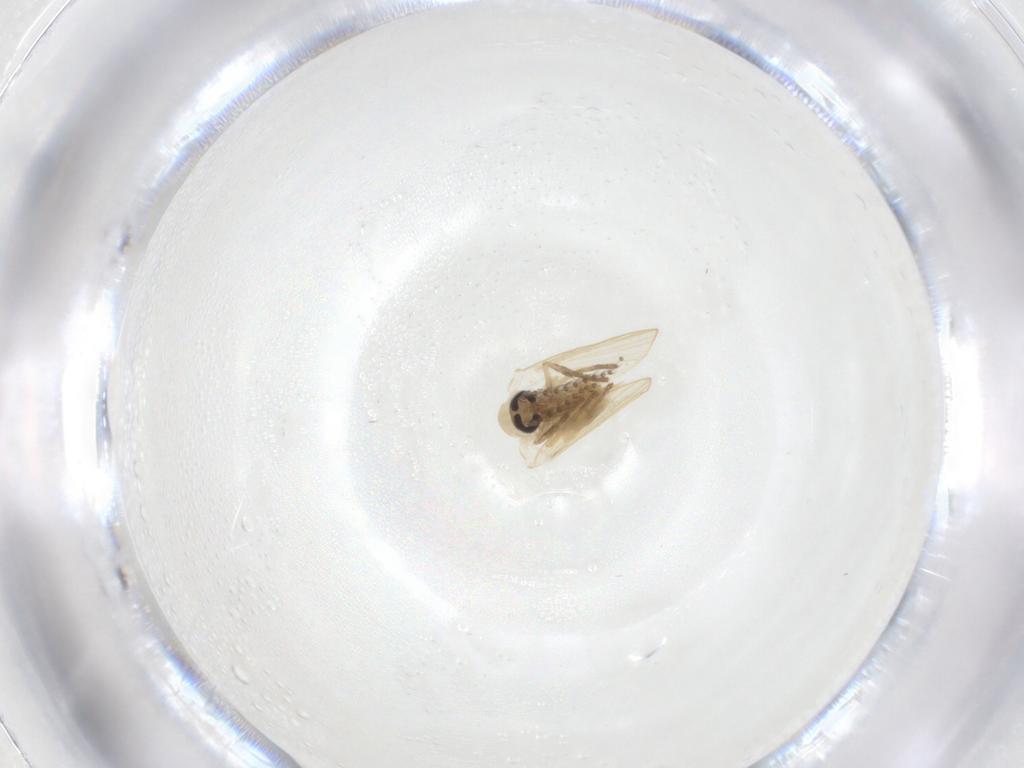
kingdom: Animalia
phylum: Arthropoda
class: Insecta
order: Diptera
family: Psychodidae
